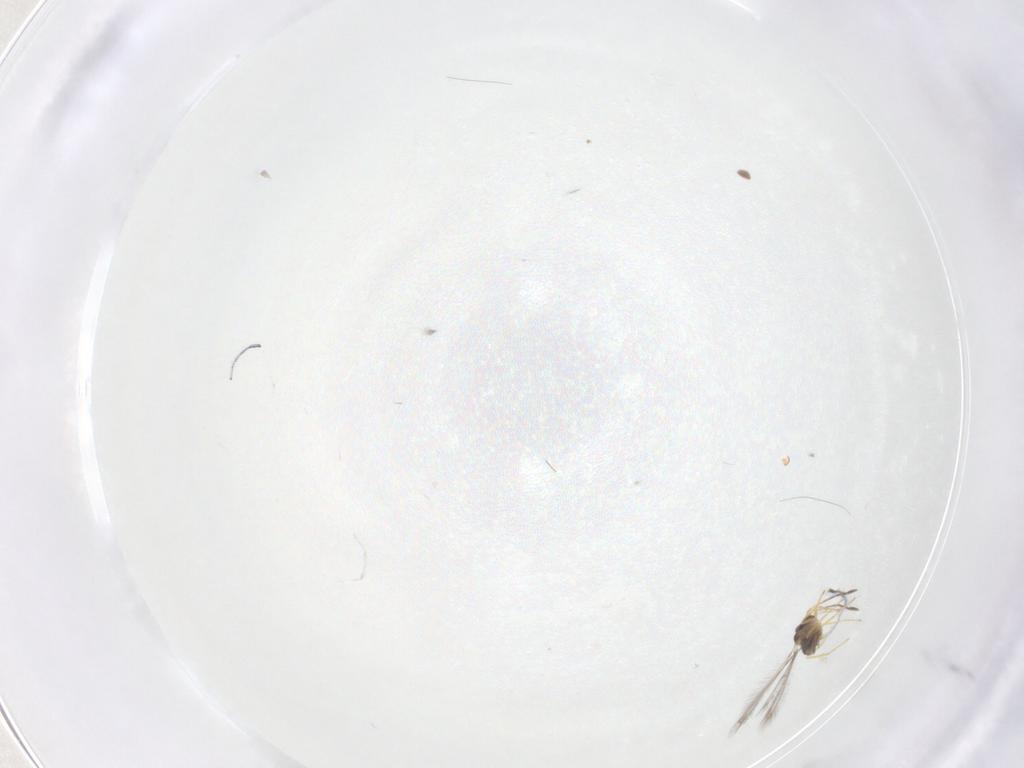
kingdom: Animalia
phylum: Arthropoda
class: Insecta
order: Hymenoptera
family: Mymaridae
